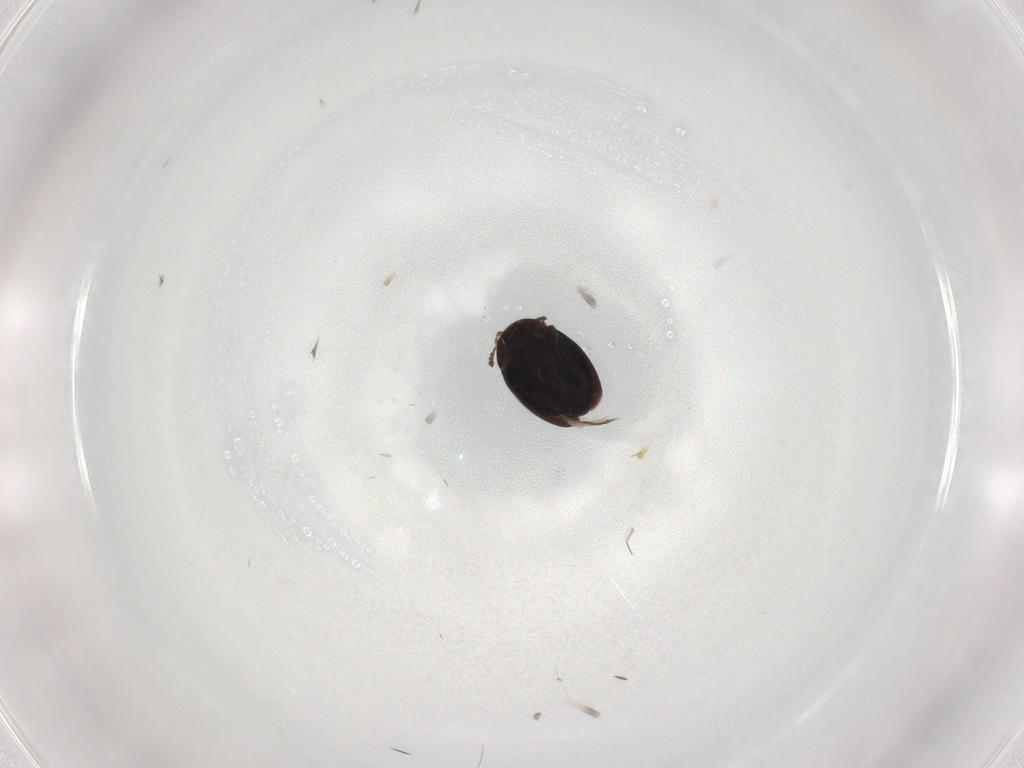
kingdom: Animalia
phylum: Arthropoda
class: Insecta
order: Coleoptera
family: Corylophidae
